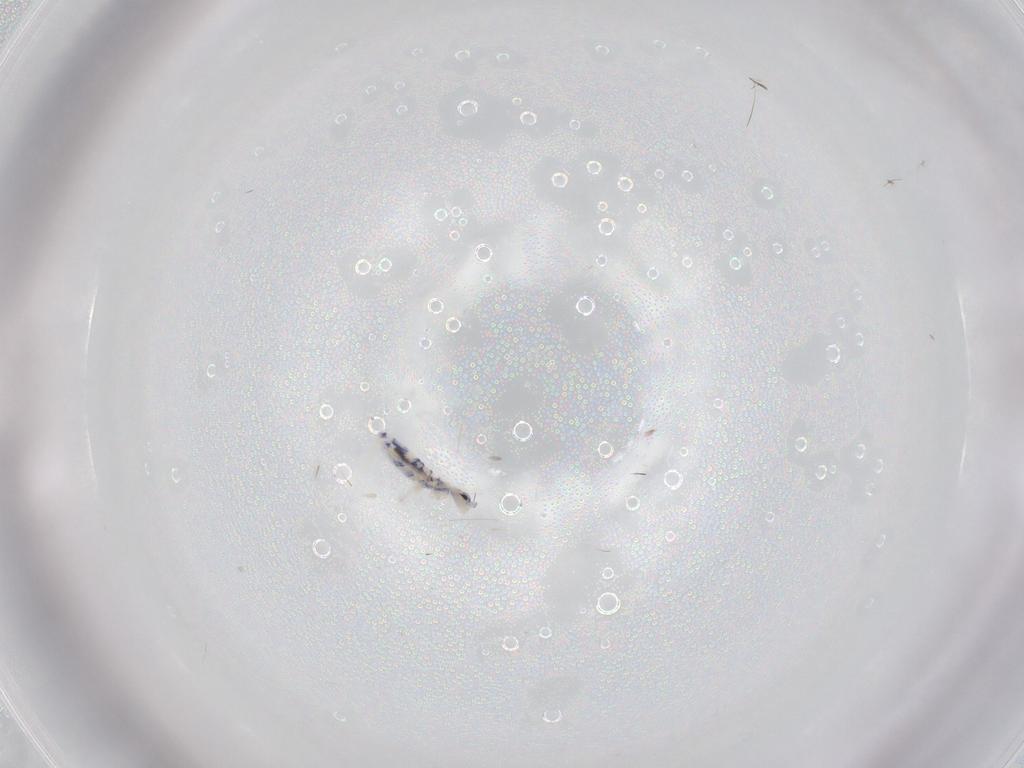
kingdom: Animalia
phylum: Arthropoda
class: Collembola
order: Entomobryomorpha
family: Entomobryidae
